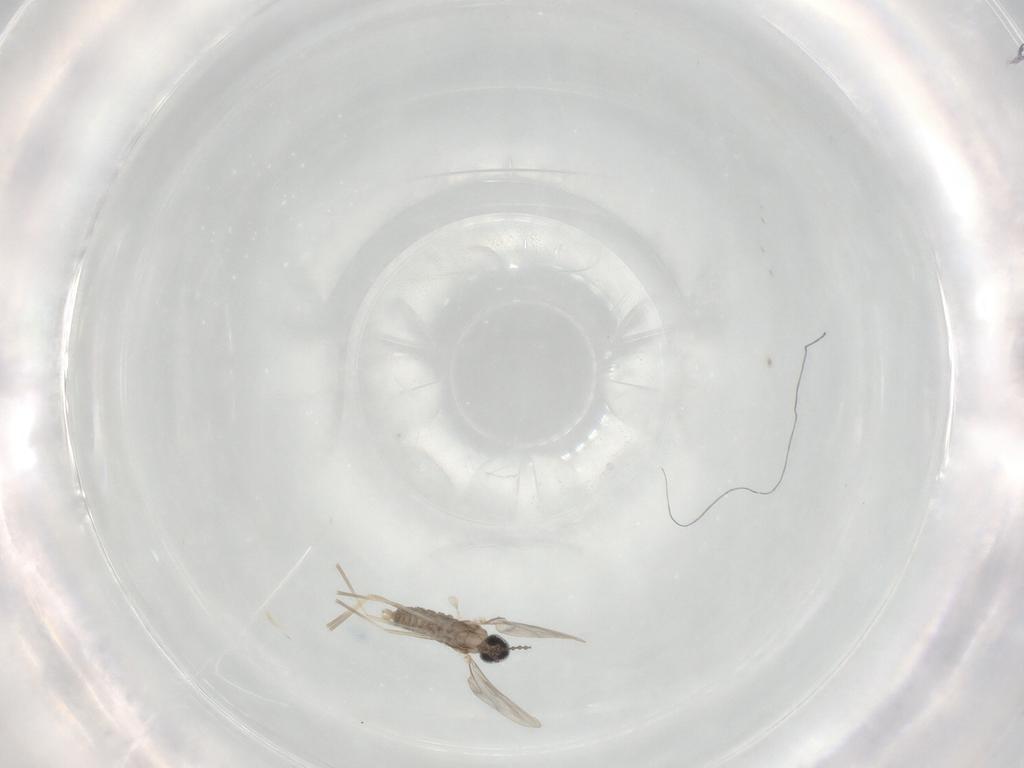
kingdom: Animalia
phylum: Arthropoda
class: Insecta
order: Diptera
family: Cecidomyiidae
